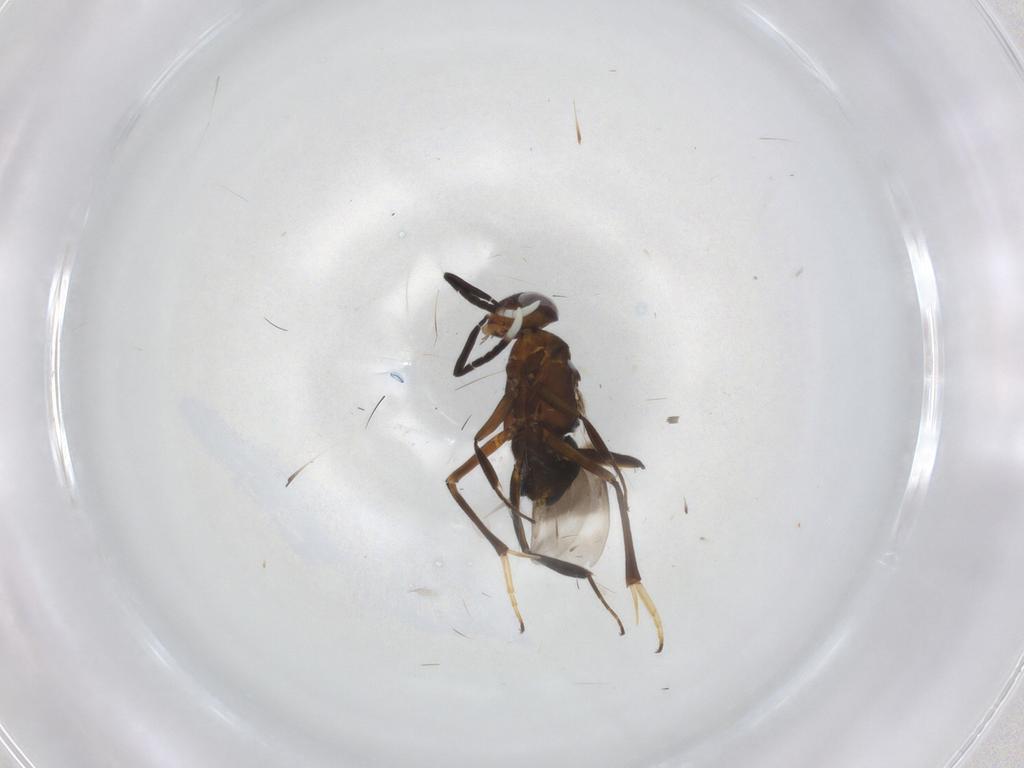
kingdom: Animalia
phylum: Arthropoda
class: Insecta
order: Hymenoptera
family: Encyrtidae
